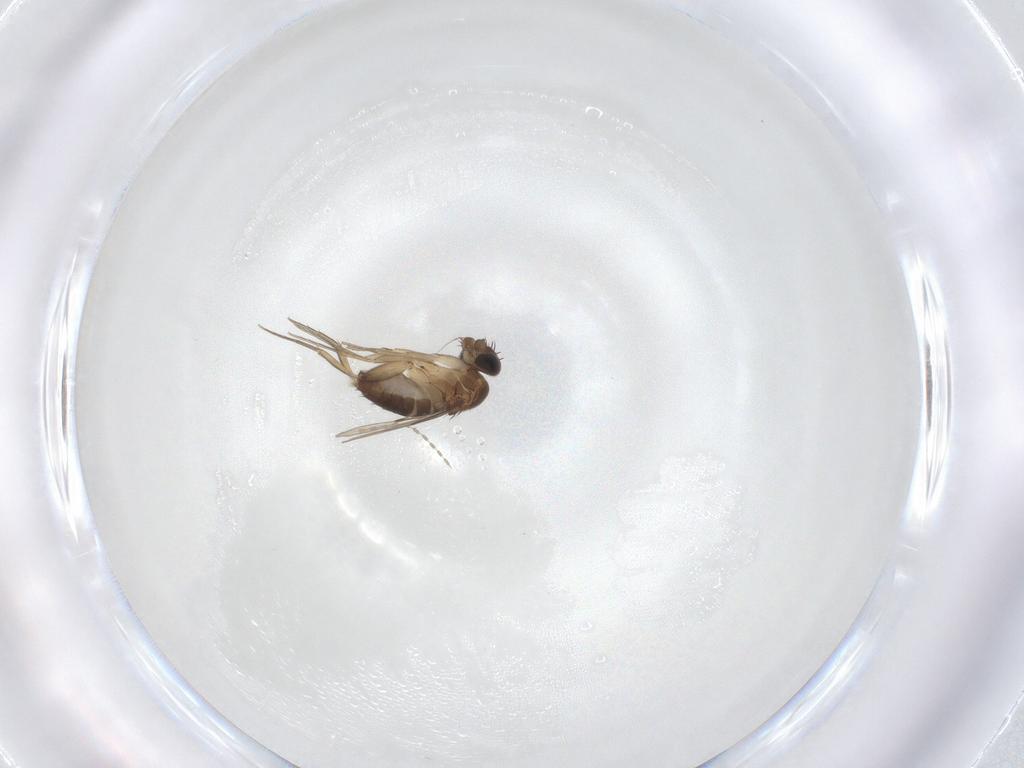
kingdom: Animalia
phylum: Arthropoda
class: Insecta
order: Diptera
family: Phoridae
